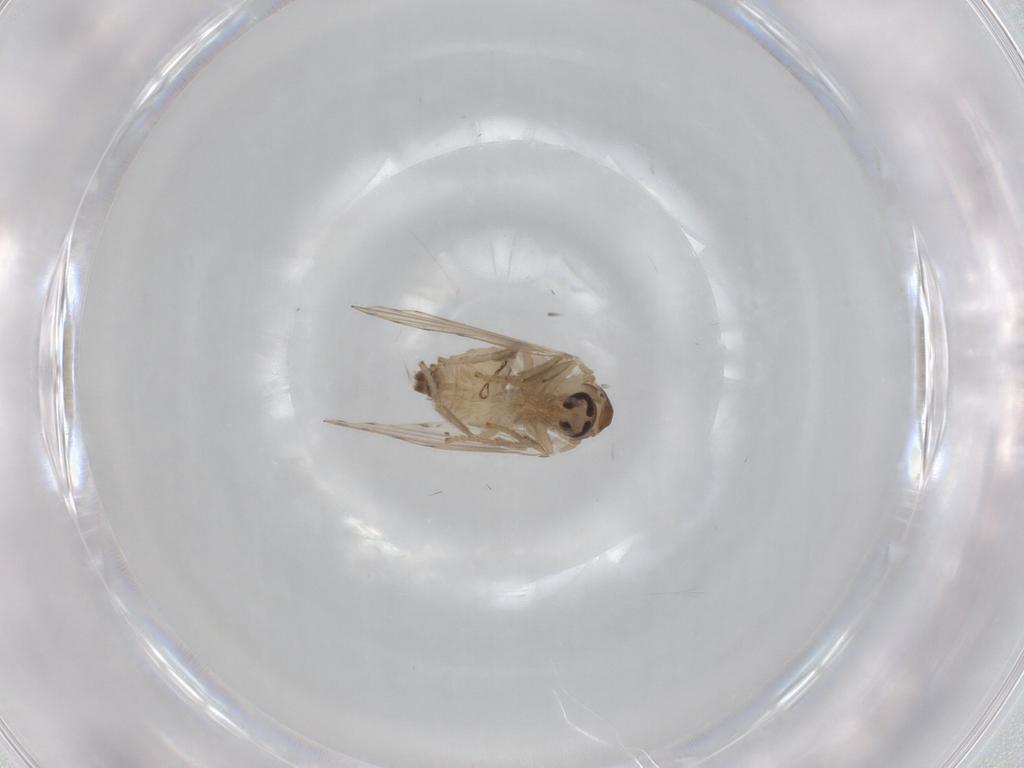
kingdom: Animalia
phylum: Arthropoda
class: Insecta
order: Diptera
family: Psychodidae
